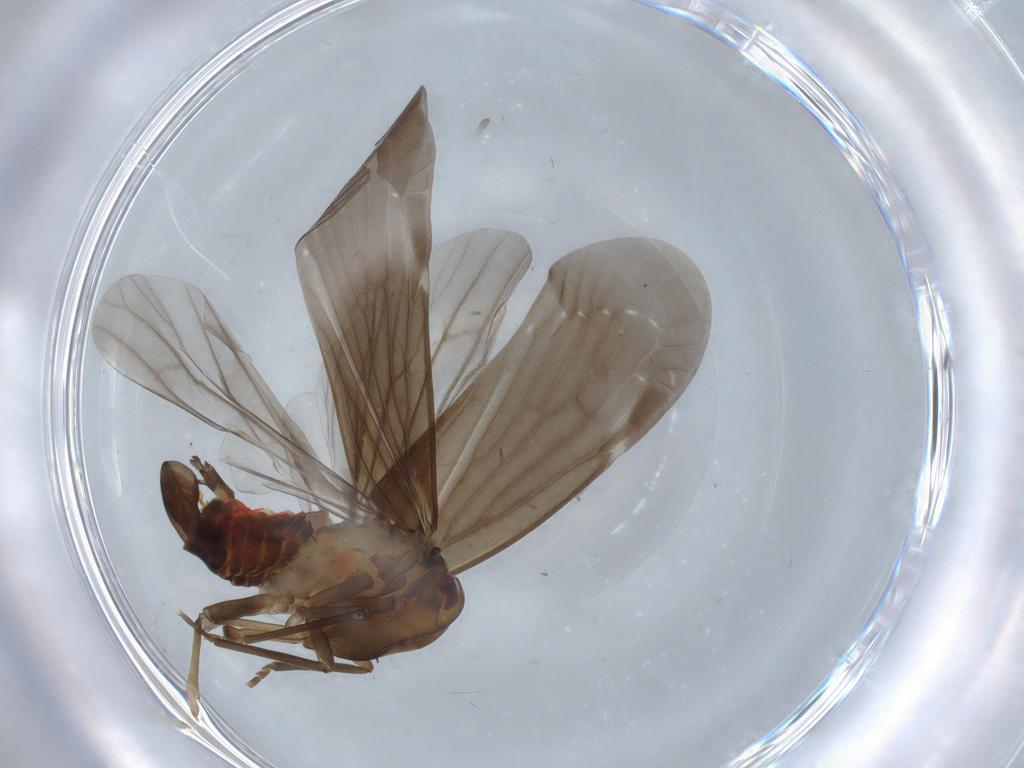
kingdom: Animalia
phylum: Arthropoda
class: Insecta
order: Hemiptera
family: Derbidae
